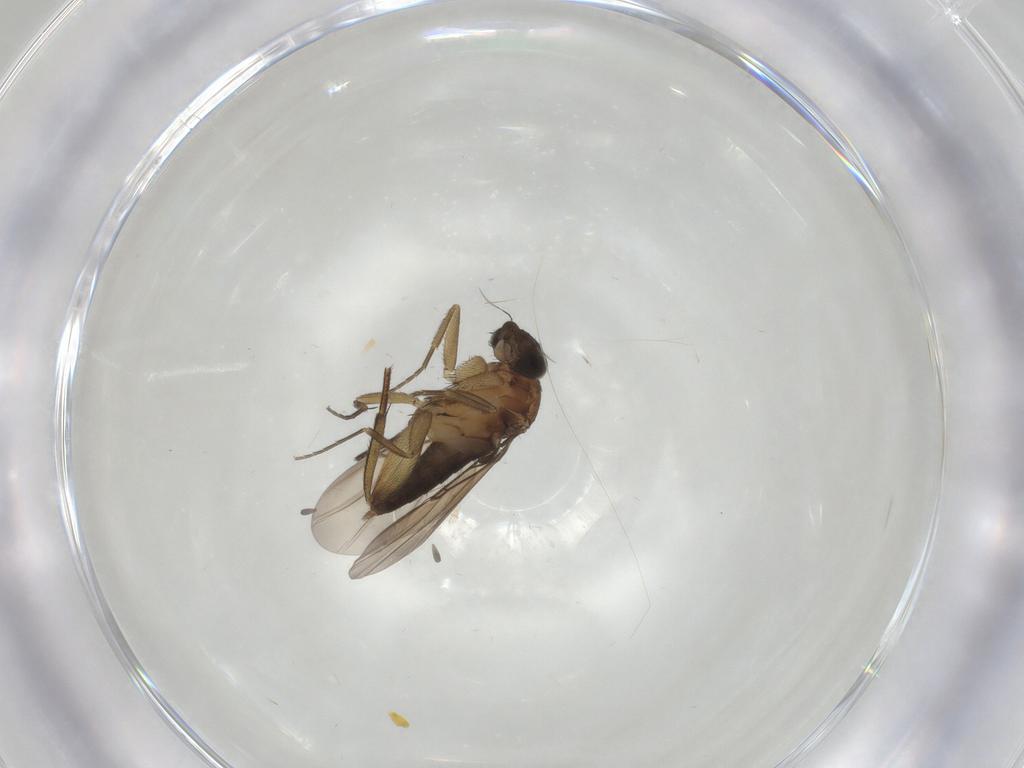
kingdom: Animalia
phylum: Arthropoda
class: Insecta
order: Diptera
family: Phoridae
